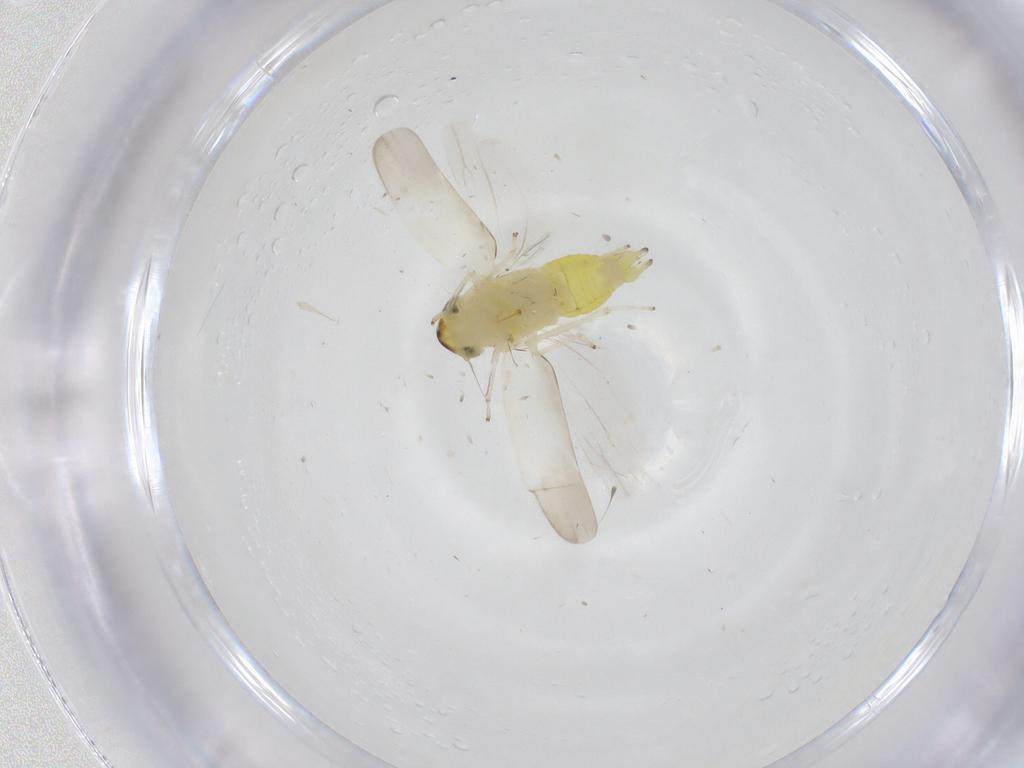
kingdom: Animalia
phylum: Arthropoda
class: Insecta
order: Hemiptera
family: Cicadellidae
